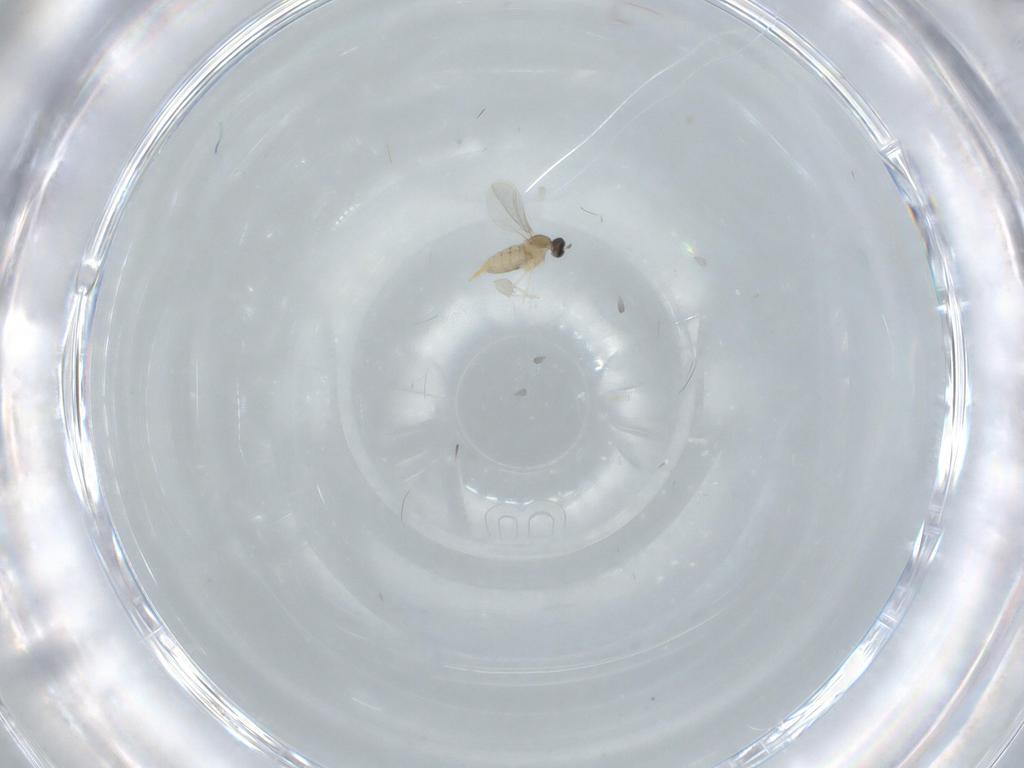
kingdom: Animalia
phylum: Arthropoda
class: Insecta
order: Diptera
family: Cecidomyiidae
